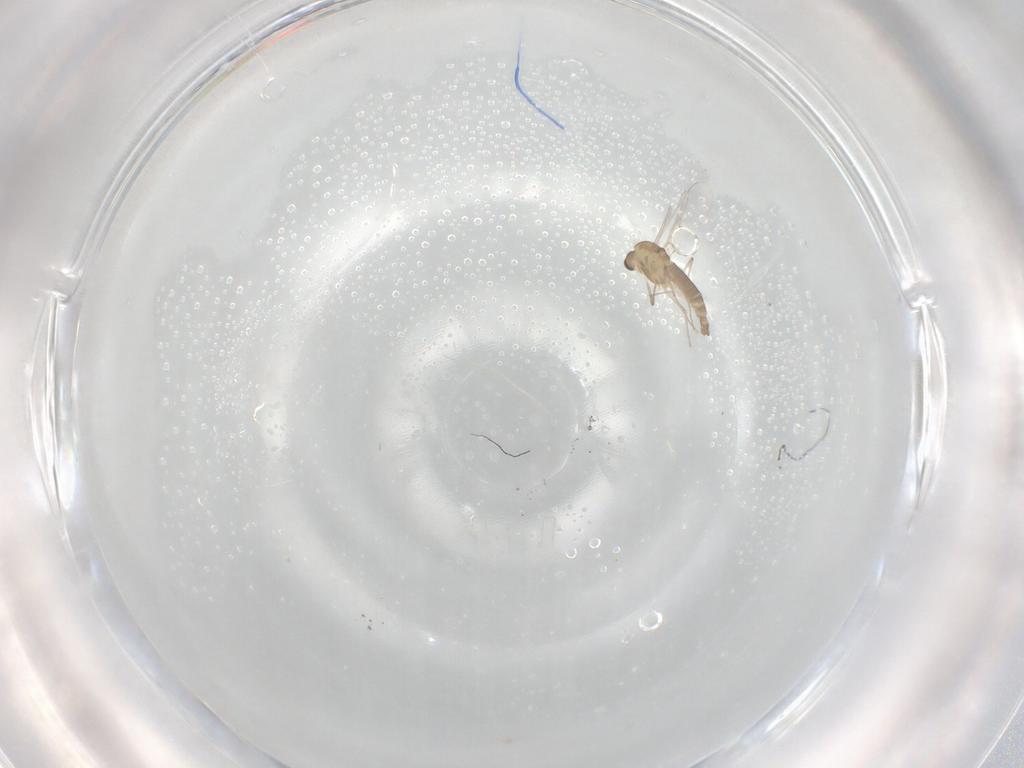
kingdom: Animalia
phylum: Arthropoda
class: Insecta
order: Diptera
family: Chironomidae
